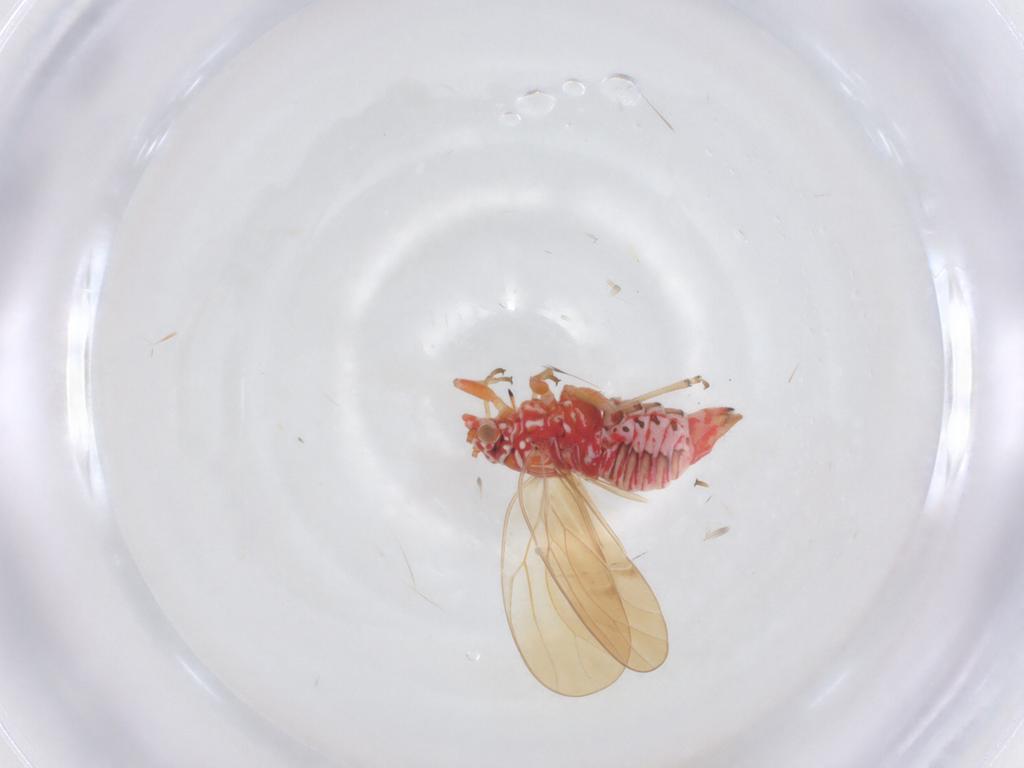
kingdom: Animalia
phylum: Arthropoda
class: Insecta
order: Hemiptera
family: Psyllidae
